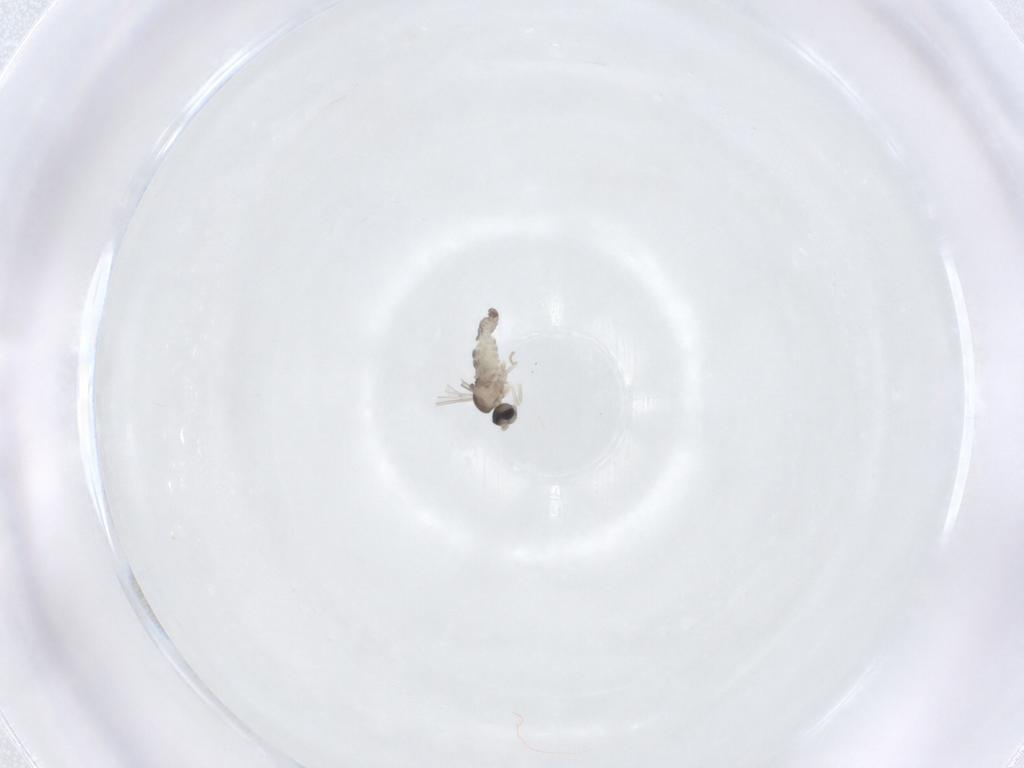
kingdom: Animalia
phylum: Arthropoda
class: Insecta
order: Diptera
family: Cecidomyiidae
